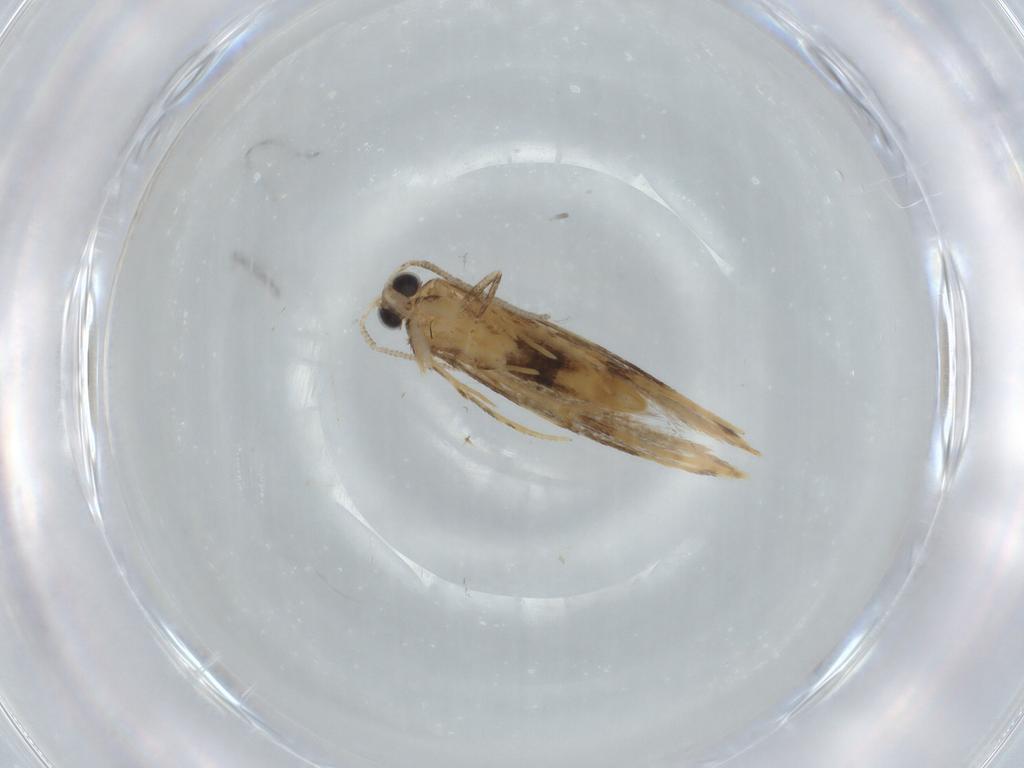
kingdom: Animalia
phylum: Arthropoda
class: Insecta
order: Lepidoptera
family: Bucculatricidae
